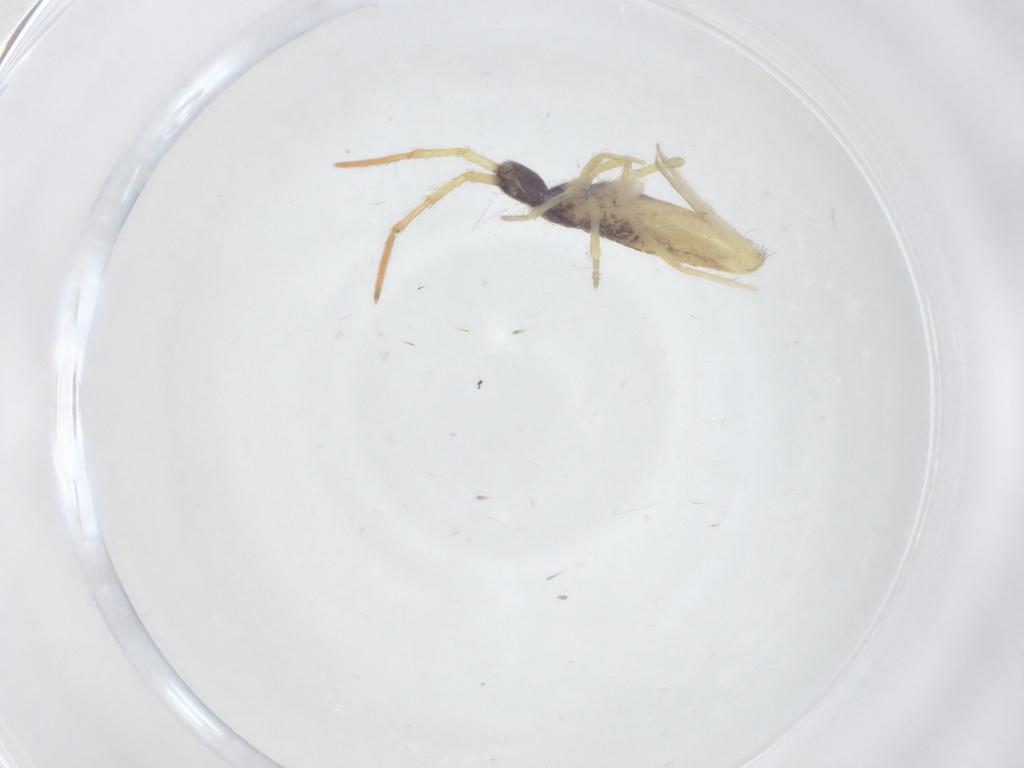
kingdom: Animalia
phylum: Arthropoda
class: Collembola
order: Entomobryomorpha
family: Entomobryidae
